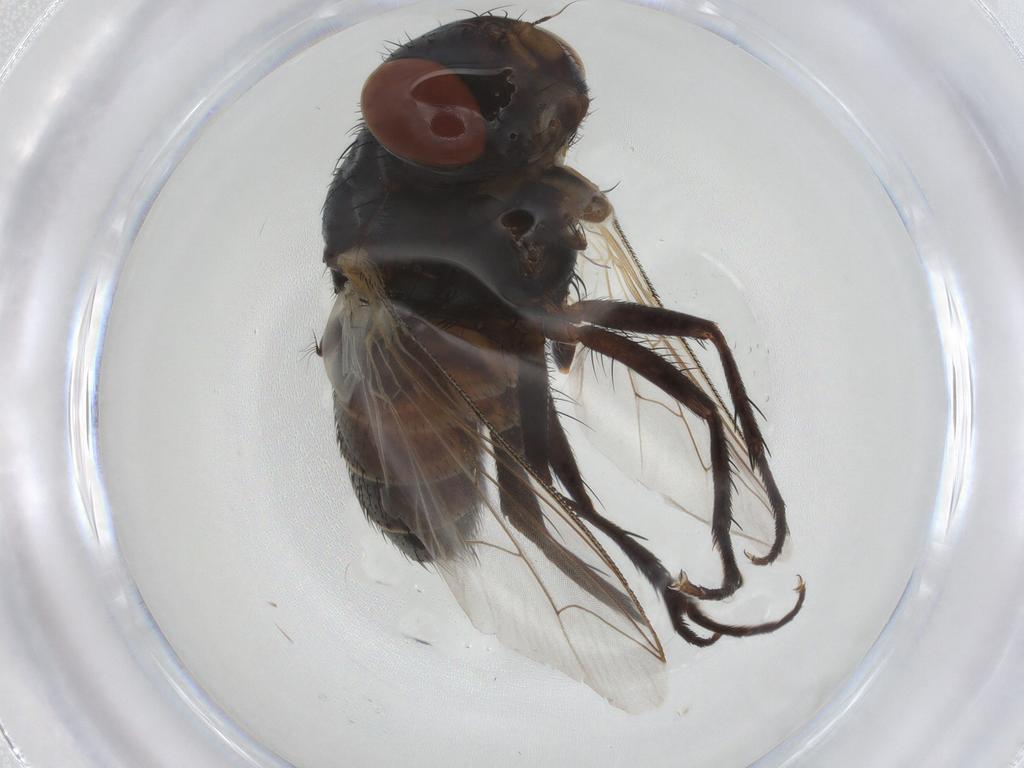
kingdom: Animalia
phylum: Arthropoda
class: Insecta
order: Diptera
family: Sarcophagidae
